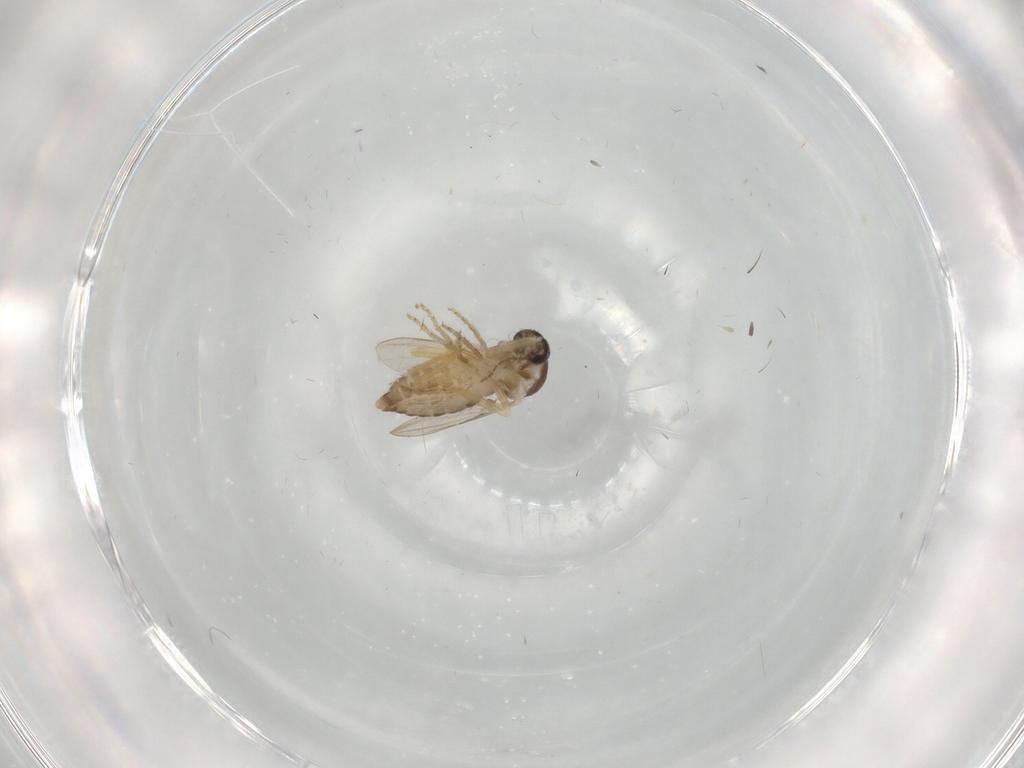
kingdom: Animalia
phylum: Arthropoda
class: Insecta
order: Diptera
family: Ceratopogonidae
